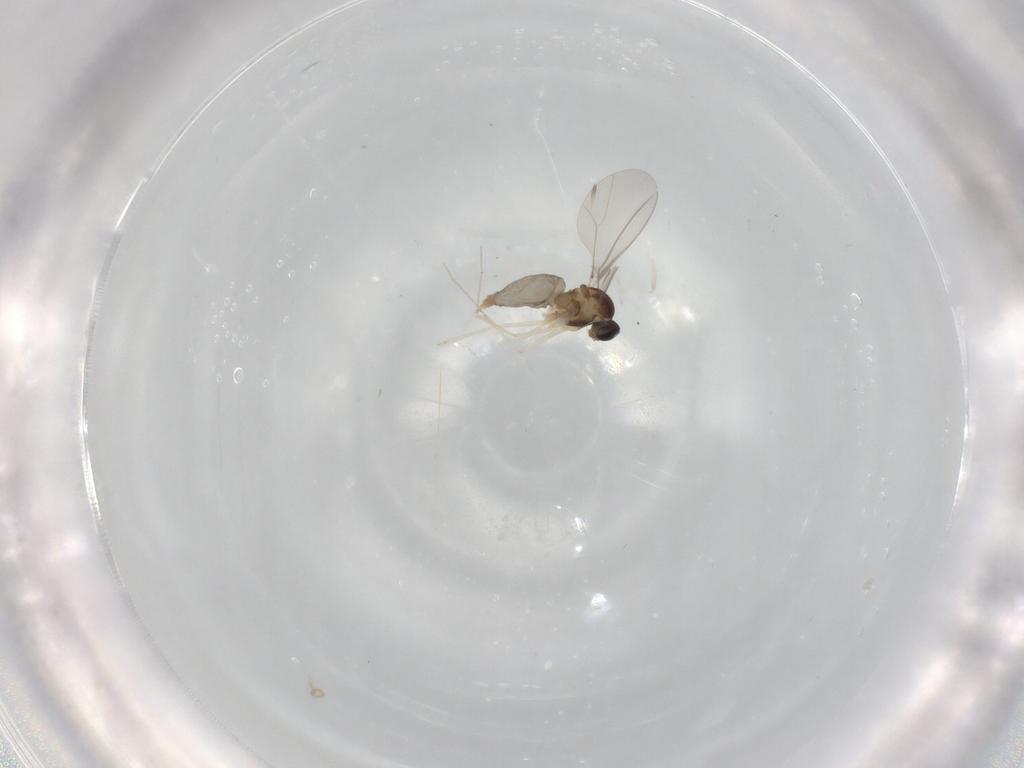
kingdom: Animalia
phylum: Arthropoda
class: Insecta
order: Diptera
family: Cecidomyiidae
